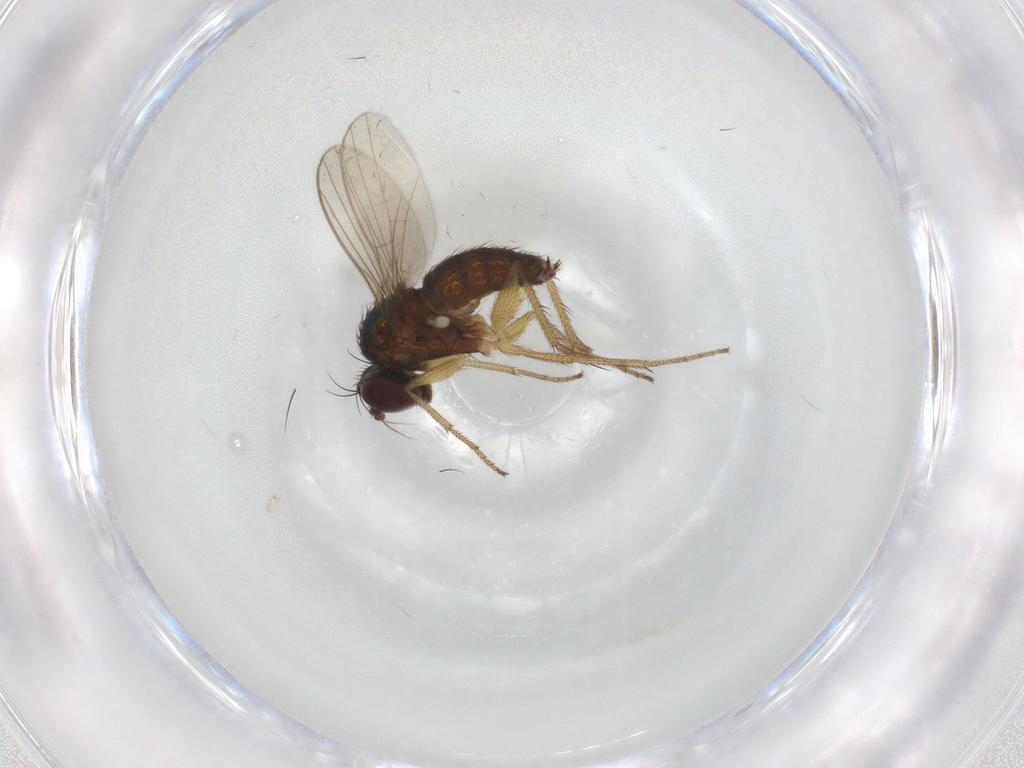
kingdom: Animalia
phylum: Arthropoda
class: Insecta
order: Diptera
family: Dolichopodidae
